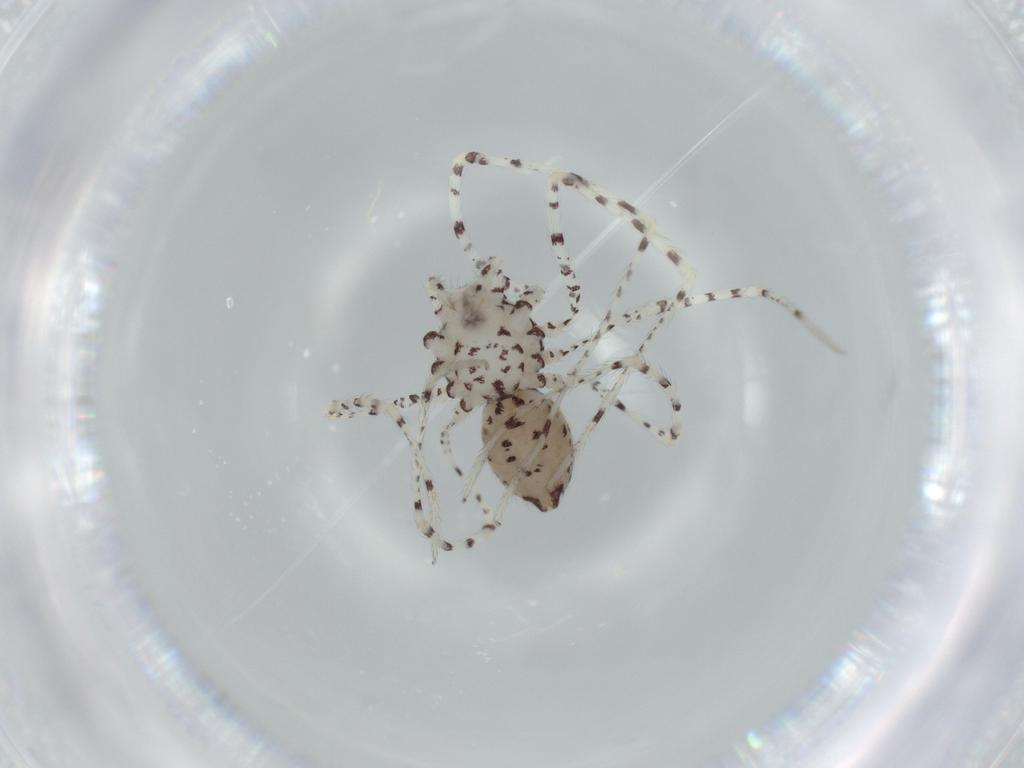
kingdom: Animalia
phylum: Arthropoda
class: Arachnida
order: Araneae
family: Scytodidae
